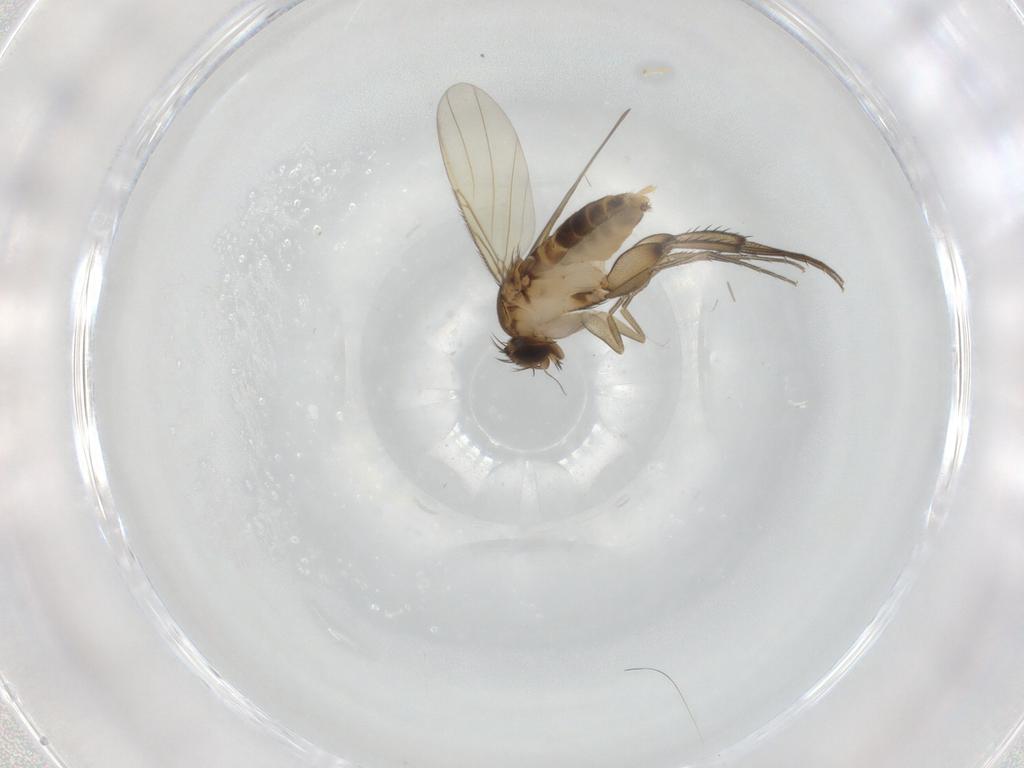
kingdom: Animalia
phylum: Arthropoda
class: Insecta
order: Diptera
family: Phoridae
